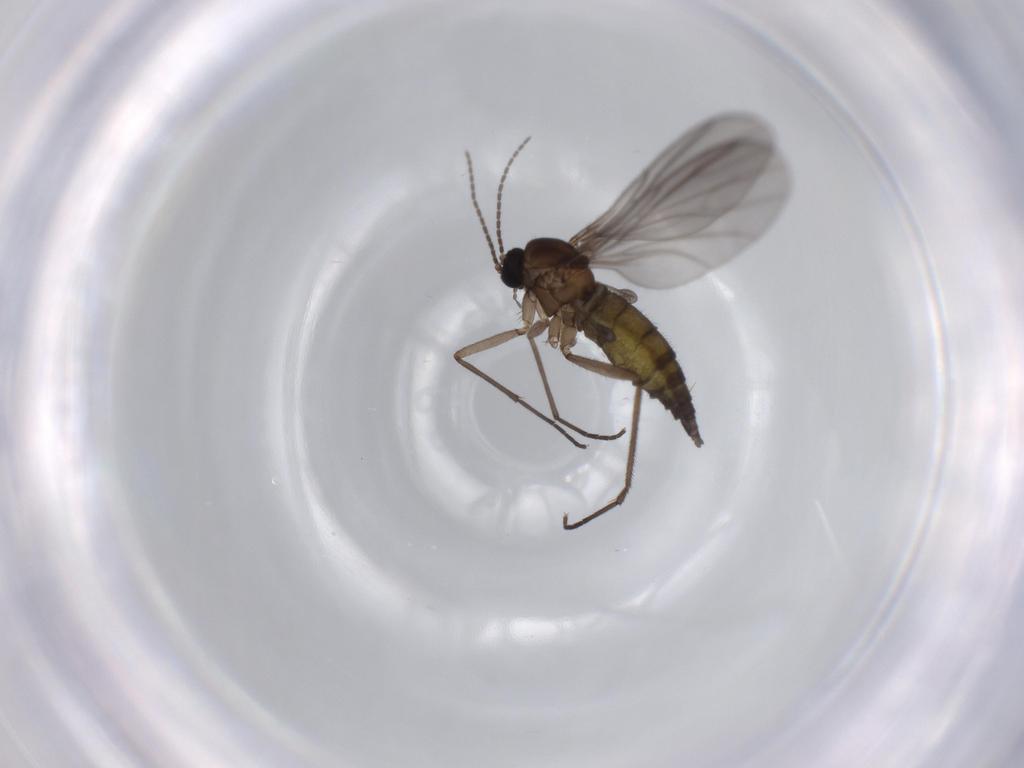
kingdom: Animalia
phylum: Arthropoda
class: Insecta
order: Diptera
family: Sciaridae
